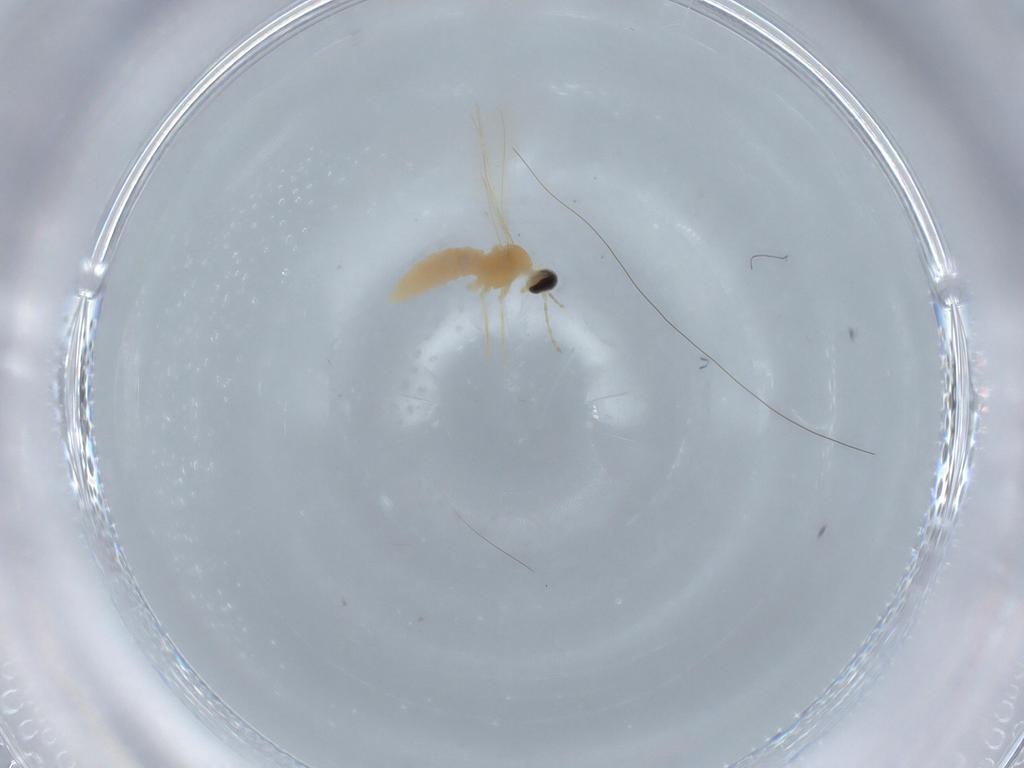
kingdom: Animalia
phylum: Arthropoda
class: Insecta
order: Diptera
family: Cecidomyiidae
